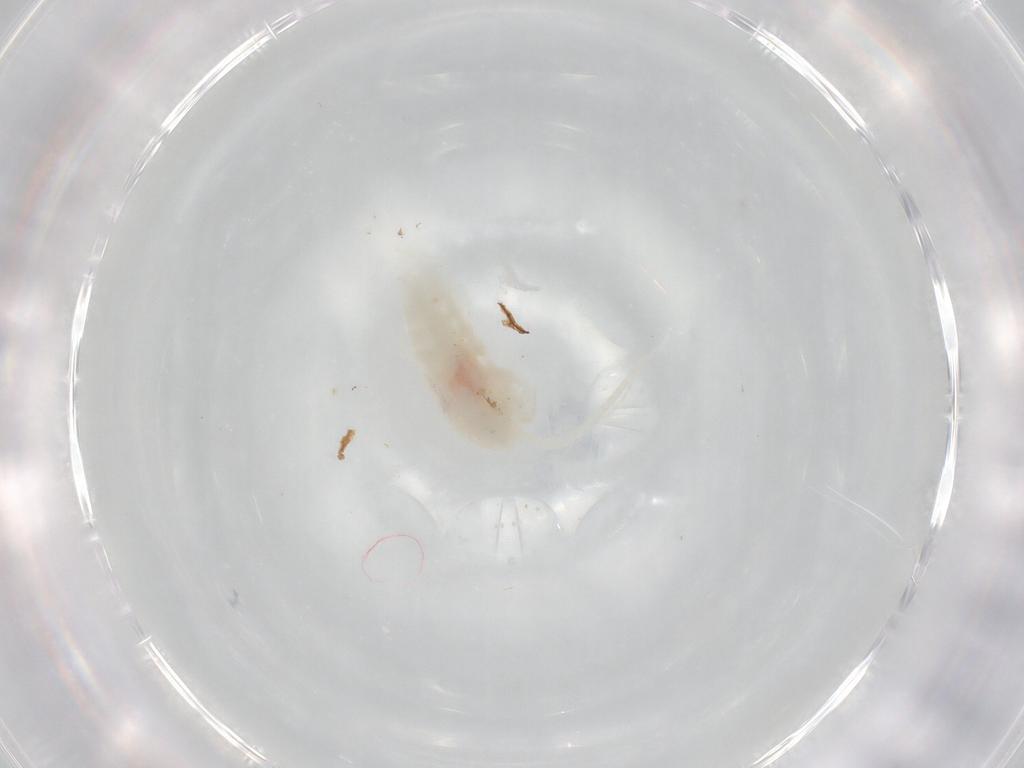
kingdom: Animalia
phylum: Arthropoda
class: Copepoda
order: Calanoida
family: Diaptomidae
